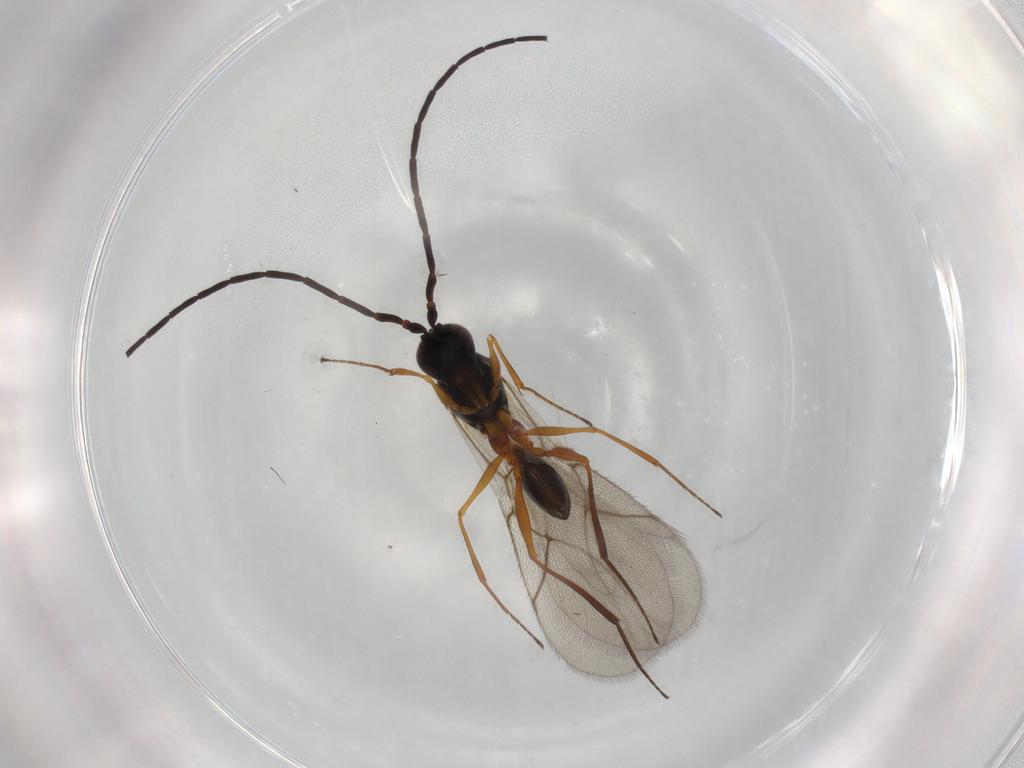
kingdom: Animalia
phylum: Arthropoda
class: Insecta
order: Hymenoptera
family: Figitidae
